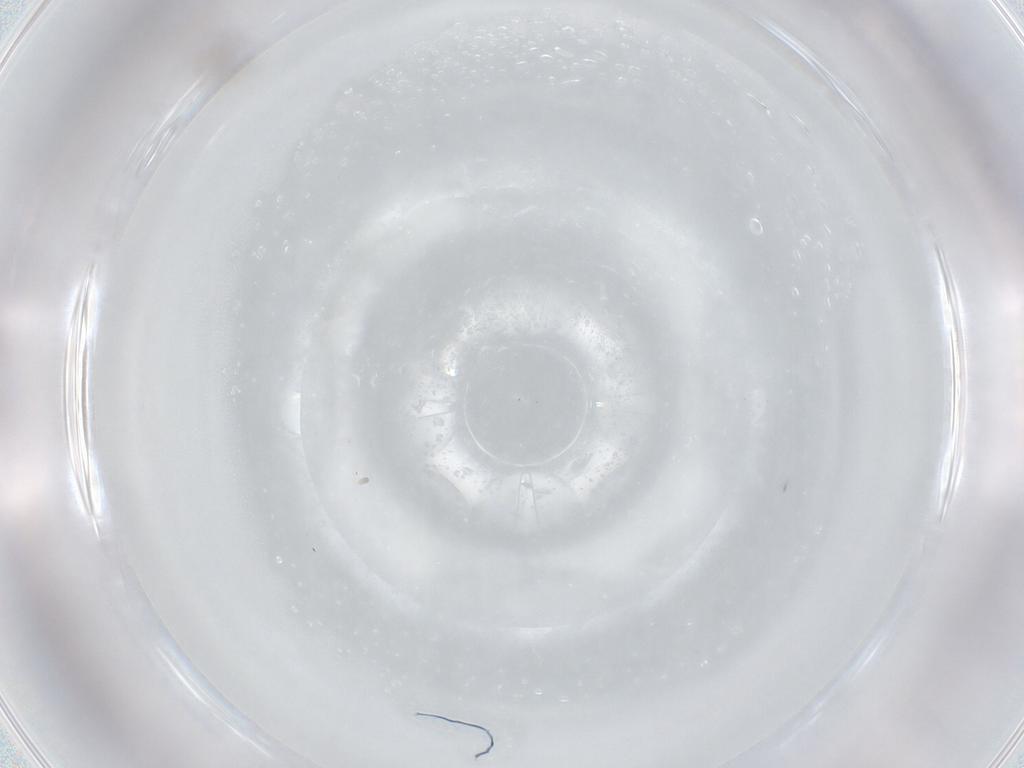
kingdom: Animalia
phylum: Arthropoda
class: Insecta
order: Hymenoptera
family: Mymaridae
